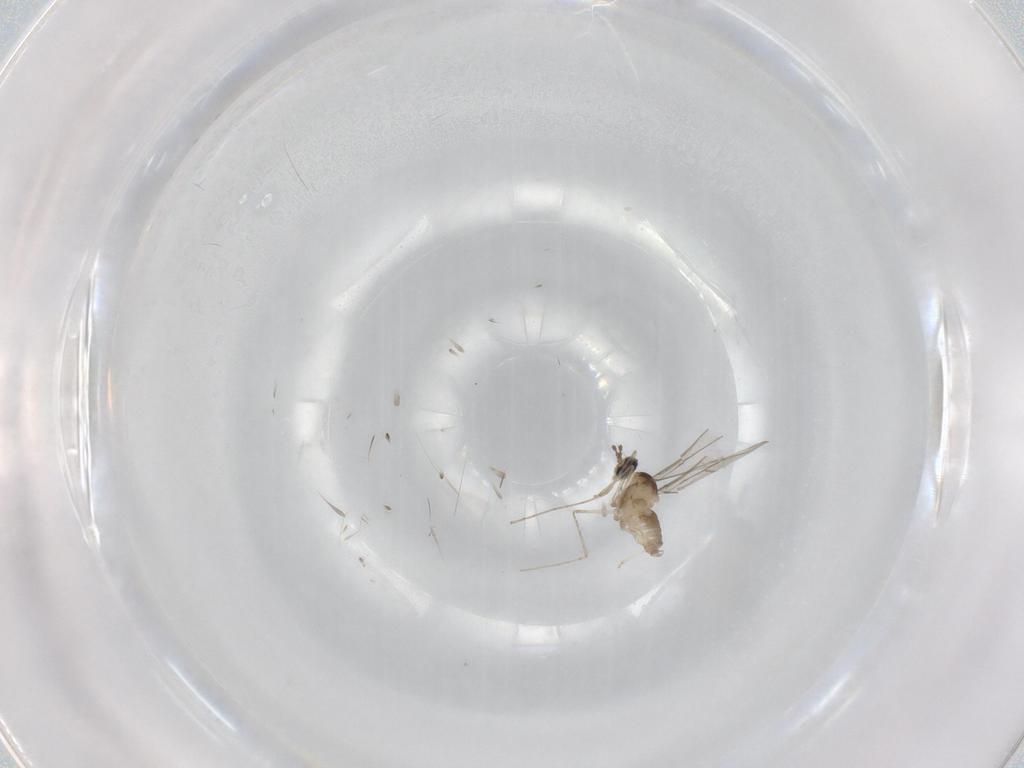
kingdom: Animalia
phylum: Arthropoda
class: Insecta
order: Diptera
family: Cecidomyiidae
